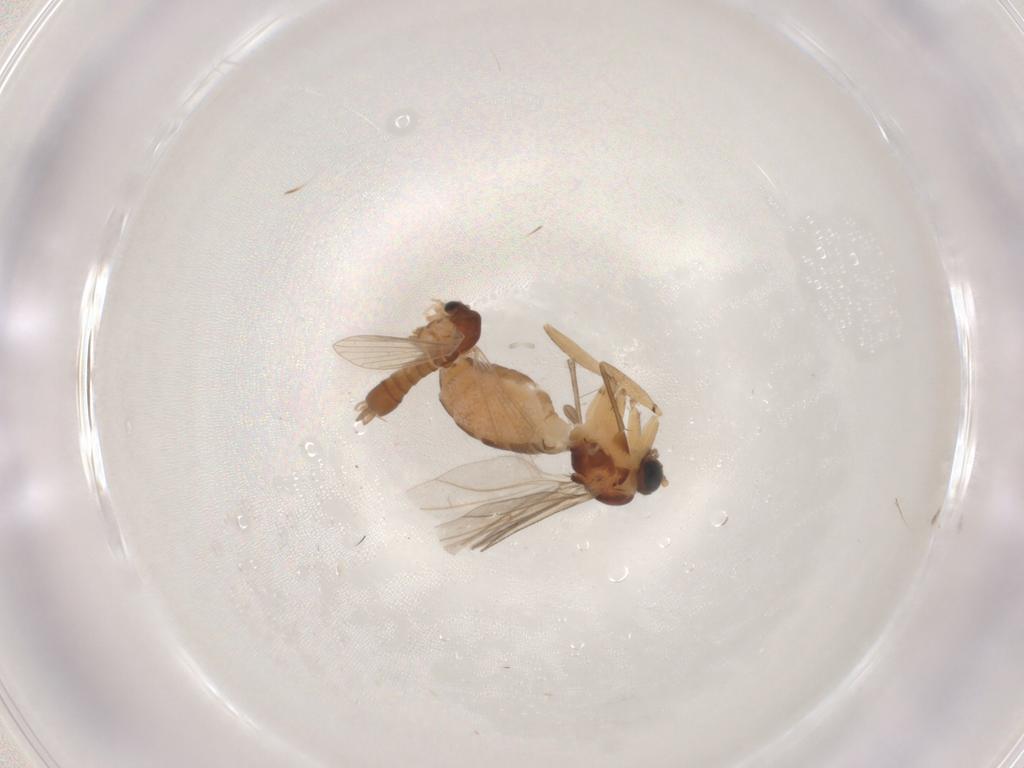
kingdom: Animalia
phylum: Arthropoda
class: Insecta
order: Diptera
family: Sciaridae
